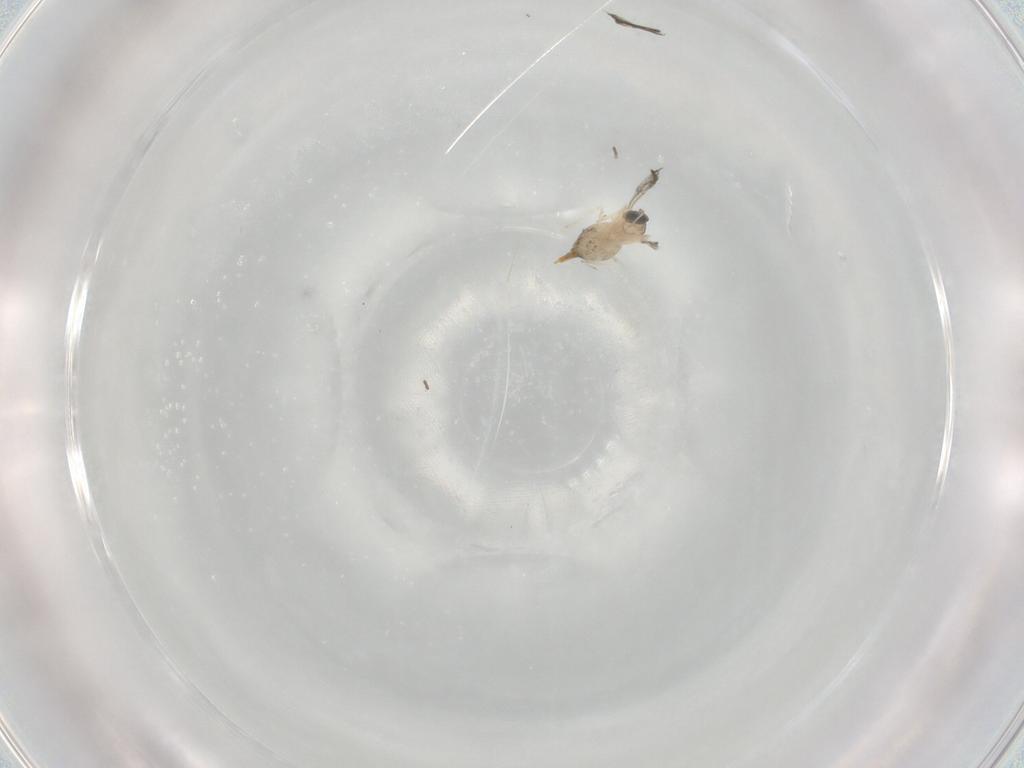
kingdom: Animalia
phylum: Arthropoda
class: Insecta
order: Diptera
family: Cecidomyiidae
